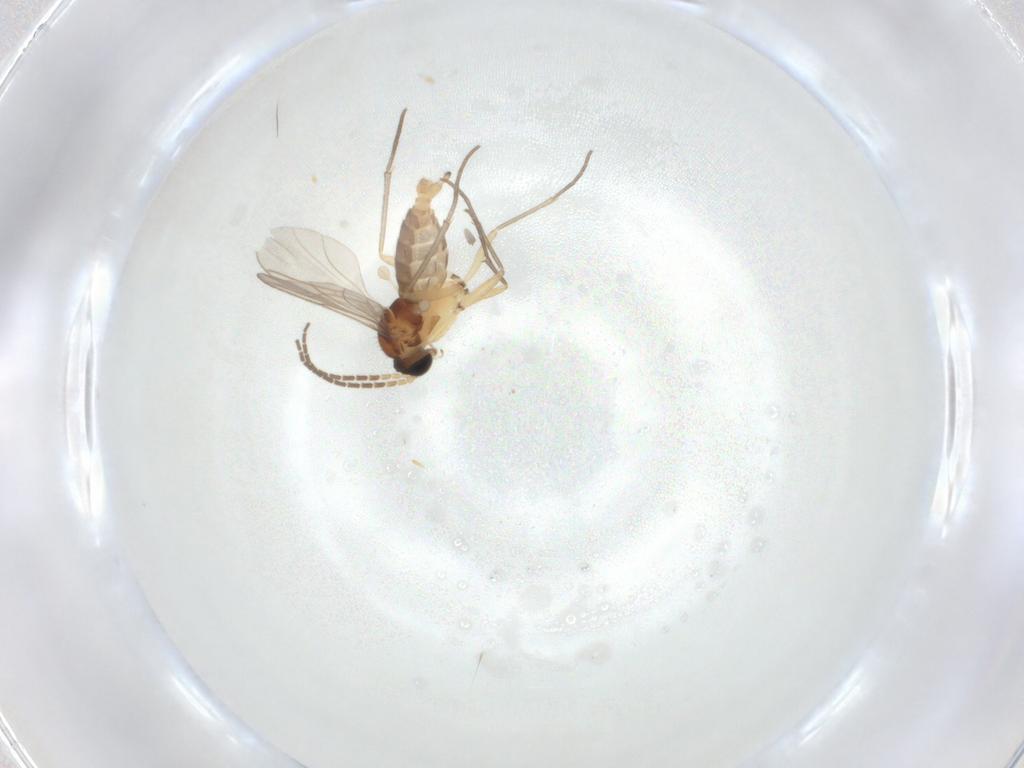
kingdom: Animalia
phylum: Arthropoda
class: Insecta
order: Diptera
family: Sciaridae
